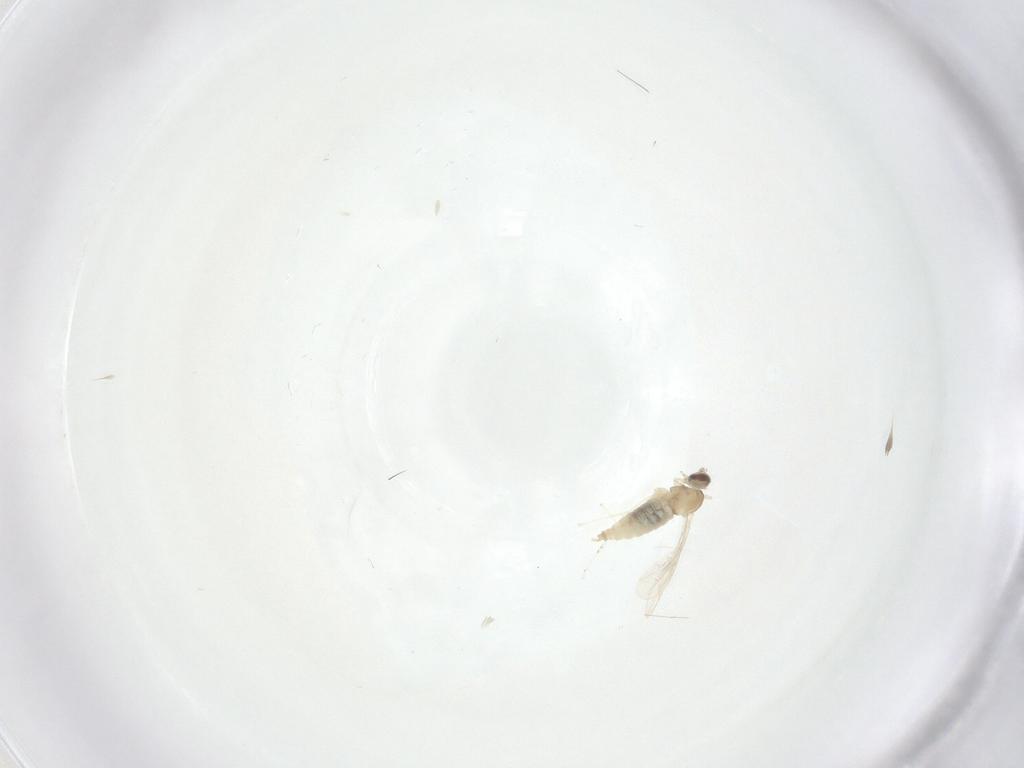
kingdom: Animalia
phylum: Arthropoda
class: Insecta
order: Diptera
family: Cecidomyiidae
